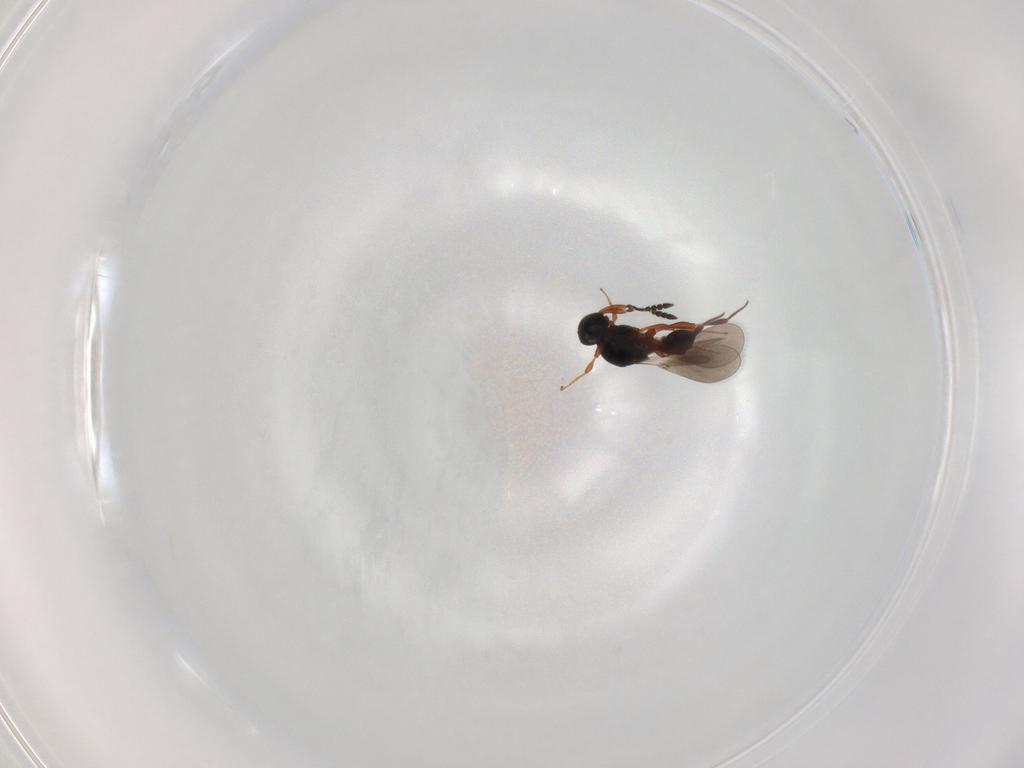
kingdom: Animalia
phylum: Arthropoda
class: Insecta
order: Hymenoptera
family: Platygastridae
